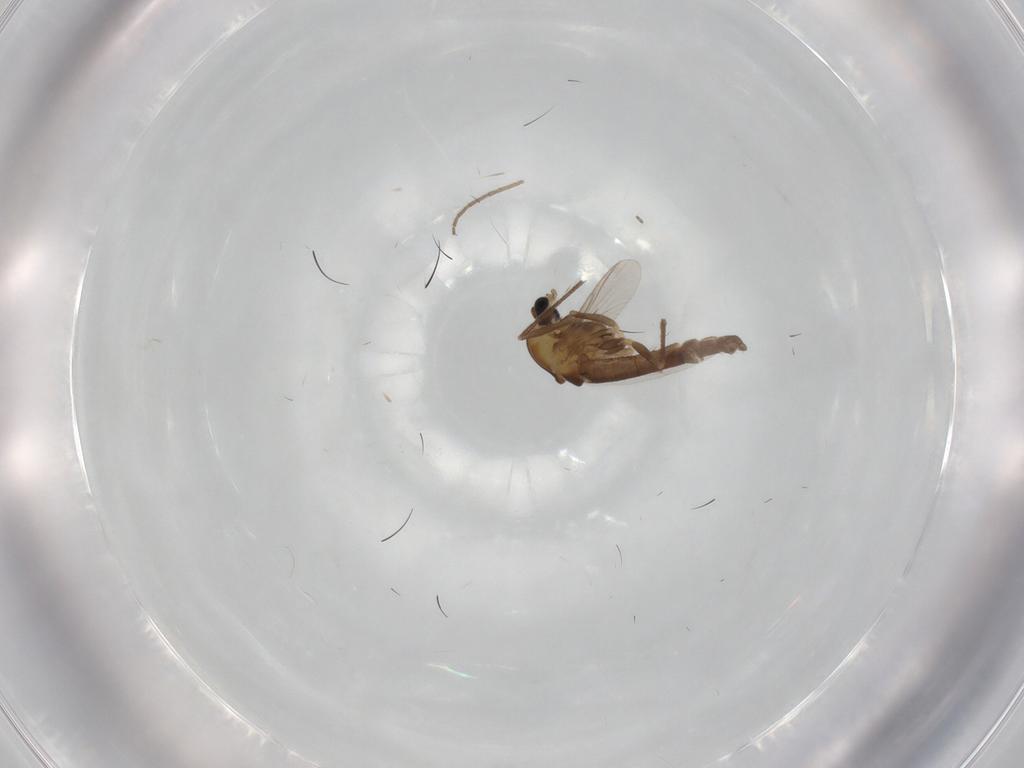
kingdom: Animalia
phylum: Arthropoda
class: Insecta
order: Diptera
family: Chironomidae
